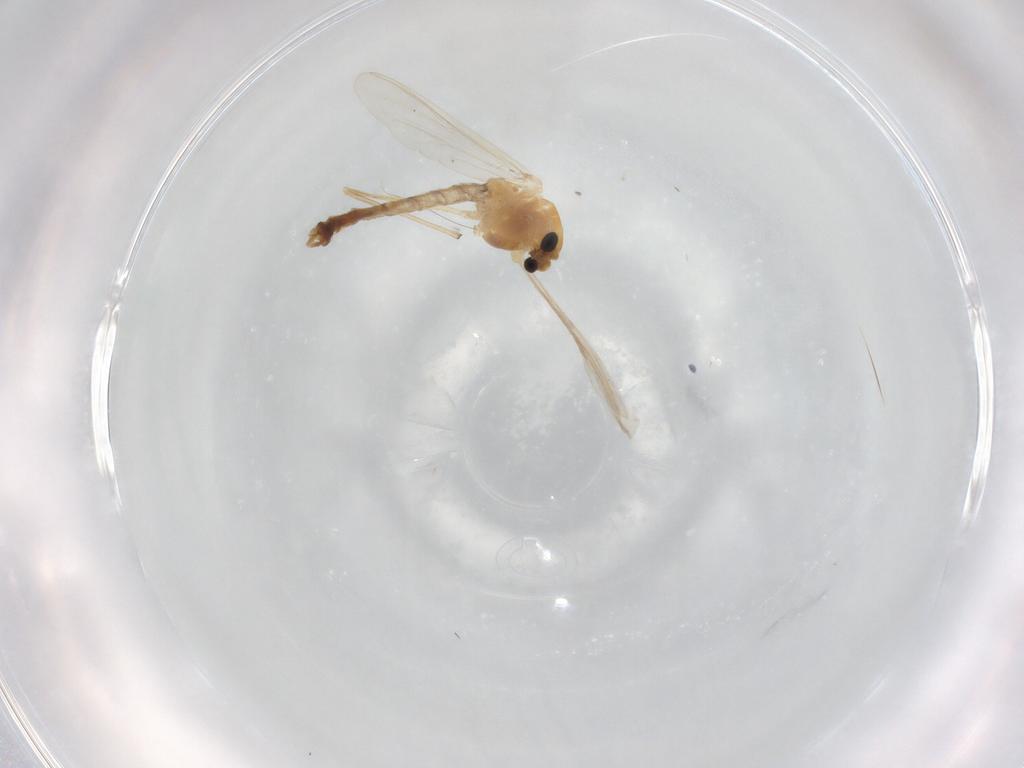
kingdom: Animalia
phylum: Arthropoda
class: Insecta
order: Diptera
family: Chironomidae
